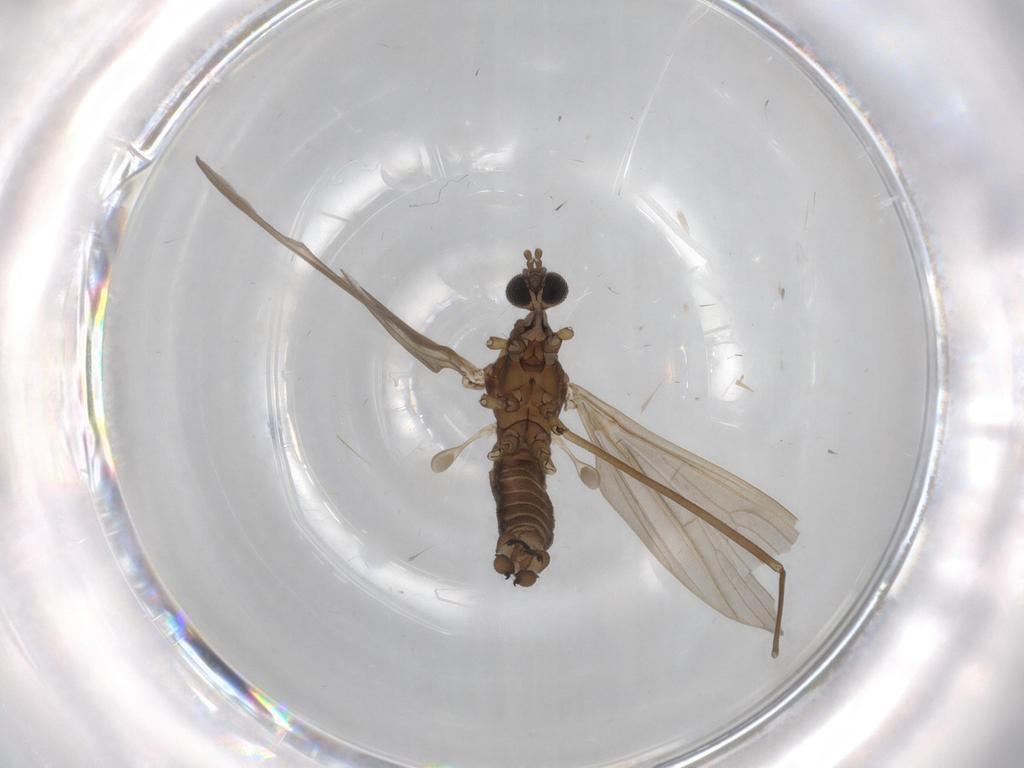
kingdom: Animalia
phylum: Arthropoda
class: Insecta
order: Diptera
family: Limoniidae
